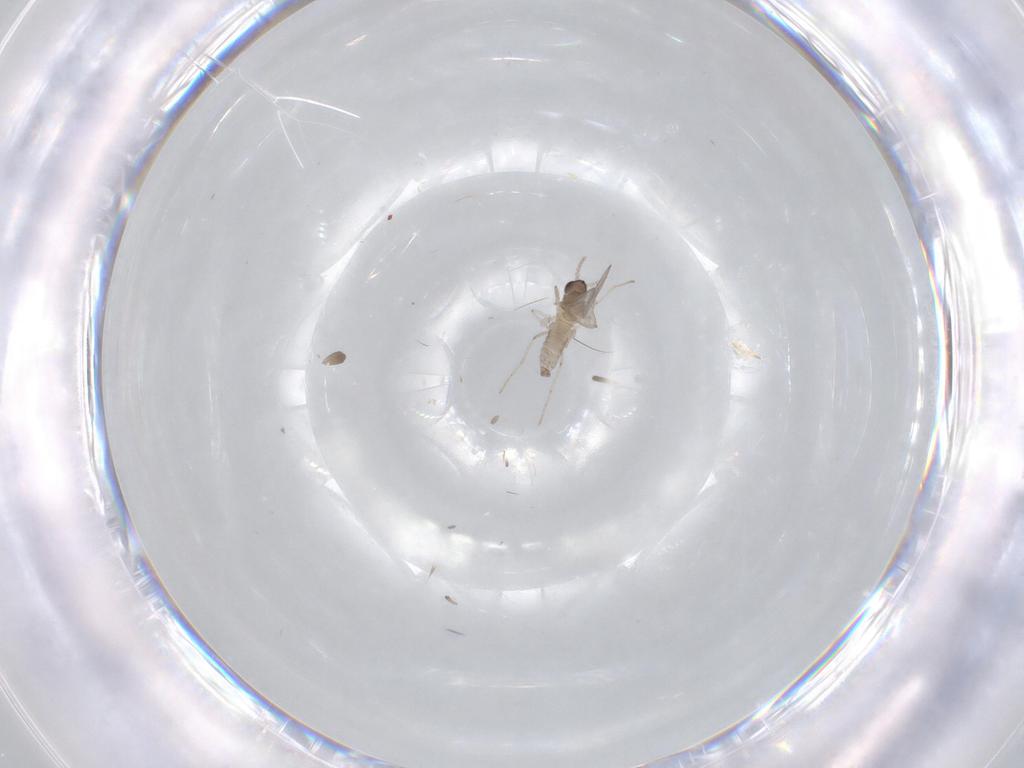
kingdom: Animalia
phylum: Arthropoda
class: Insecta
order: Diptera
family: Cecidomyiidae
